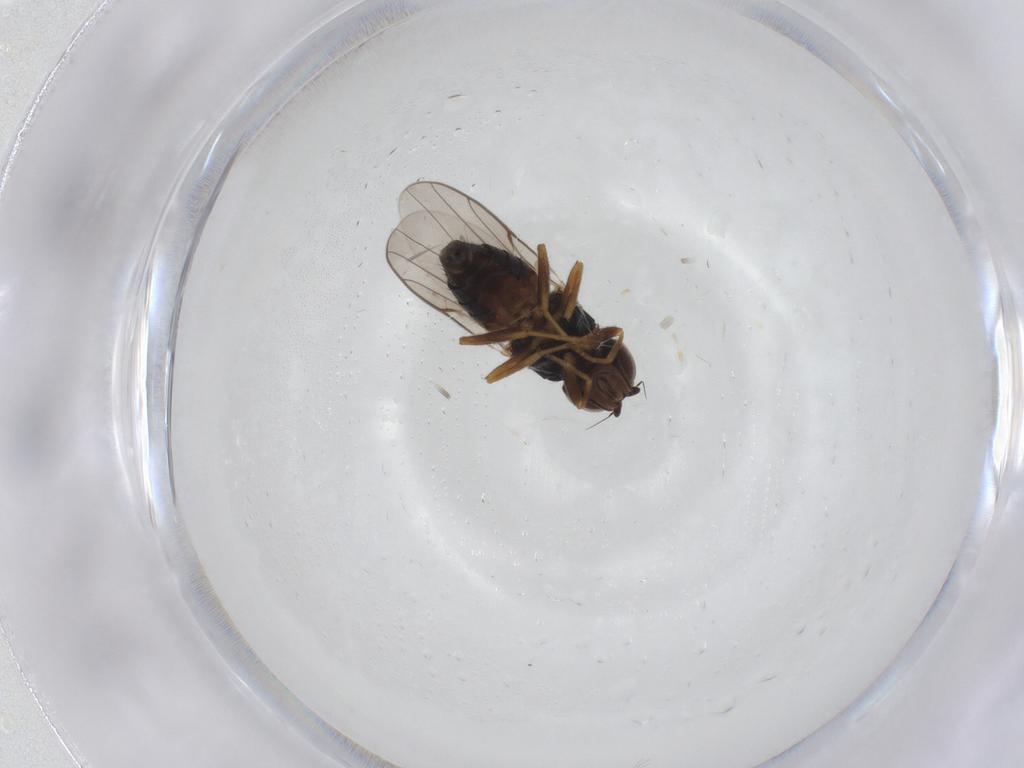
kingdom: Animalia
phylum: Arthropoda
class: Insecta
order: Diptera
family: Chloropidae
